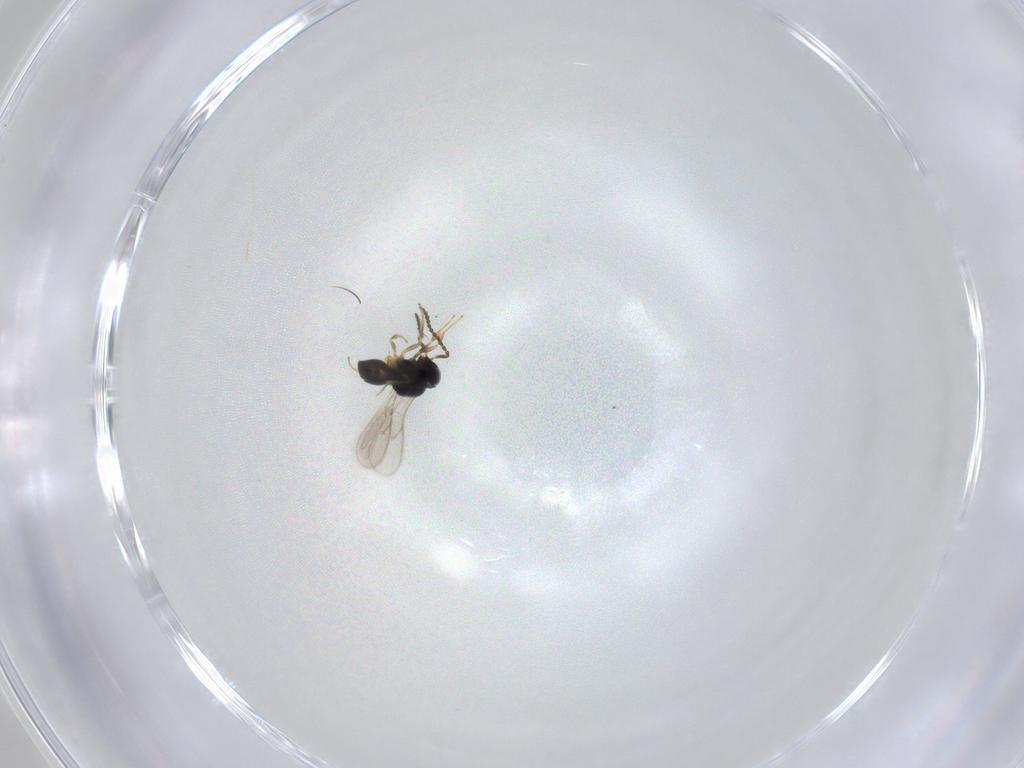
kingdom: Animalia
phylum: Arthropoda
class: Insecta
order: Hymenoptera
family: Scelionidae
